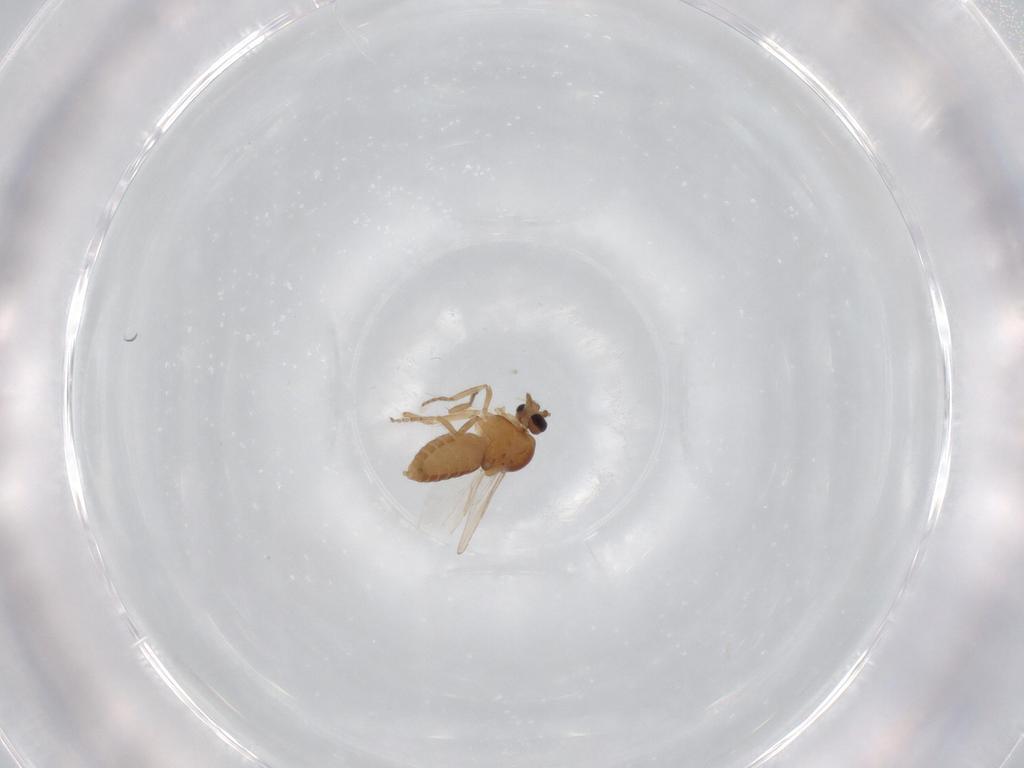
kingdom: Animalia
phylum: Arthropoda
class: Insecta
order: Diptera
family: Ceratopogonidae
